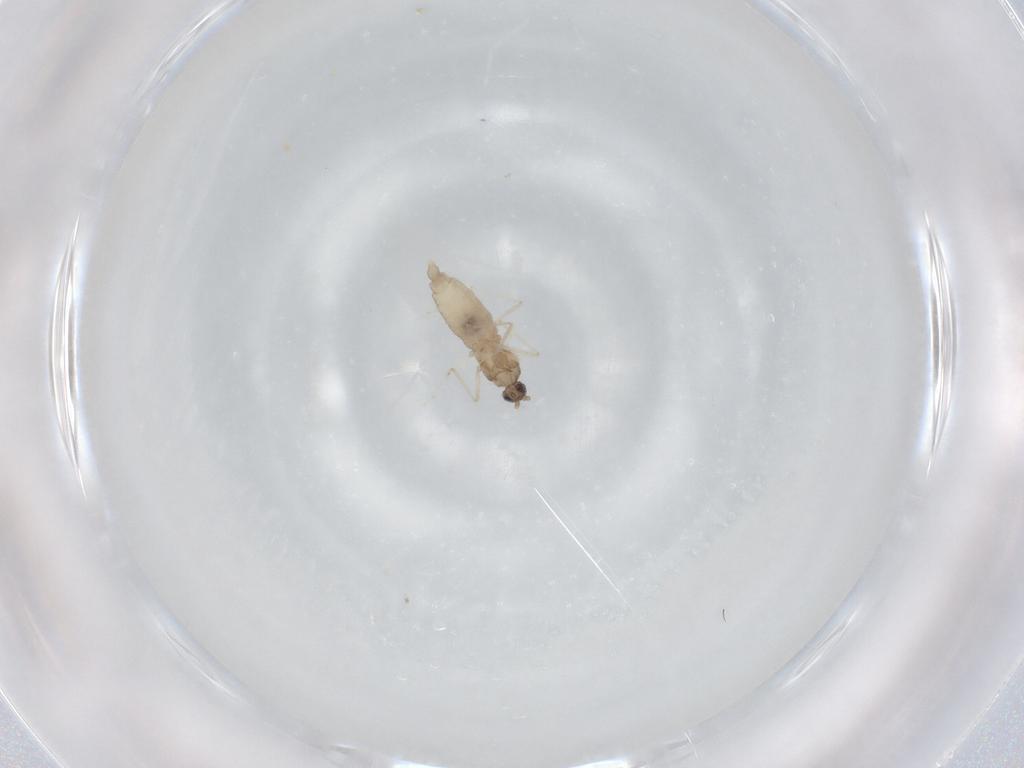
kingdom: Animalia
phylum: Arthropoda
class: Insecta
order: Diptera
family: Cecidomyiidae
